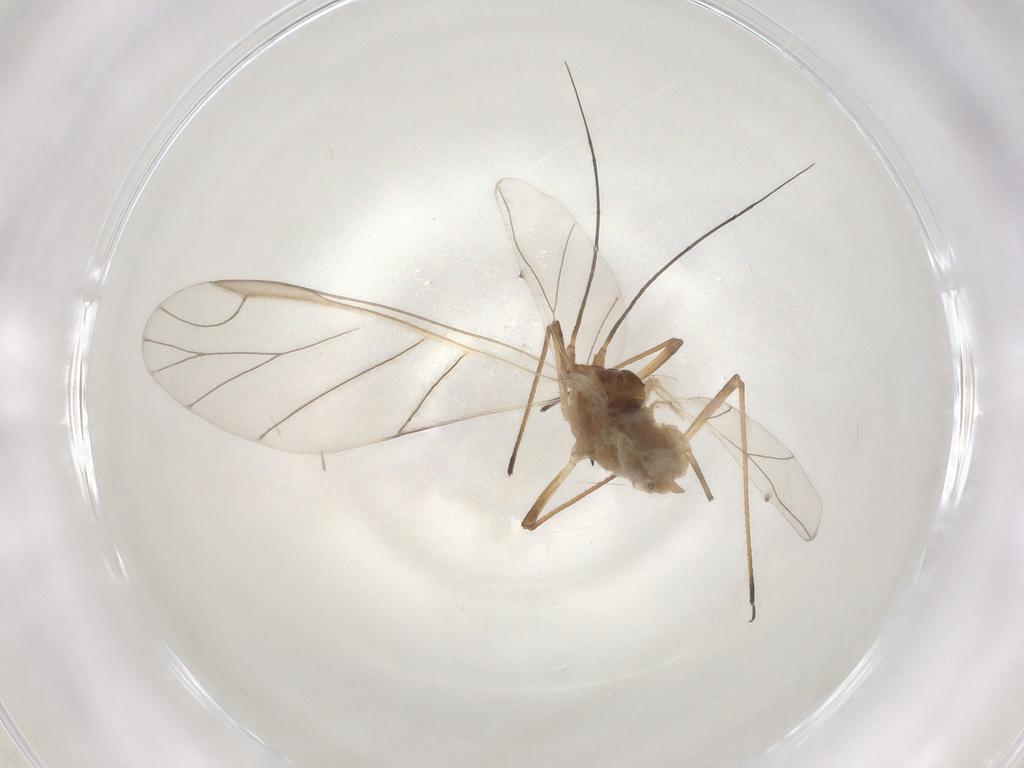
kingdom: Animalia
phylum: Arthropoda
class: Insecta
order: Hemiptera
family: Aphididae
